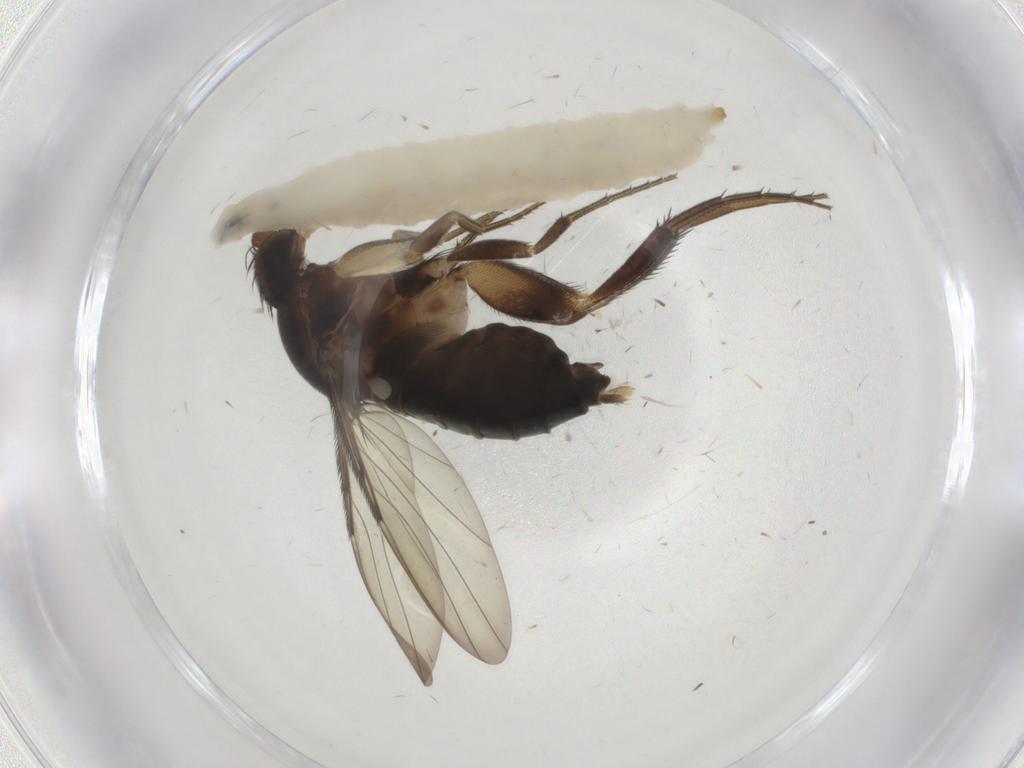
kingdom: Animalia
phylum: Arthropoda
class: Insecta
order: Diptera
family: Phoridae
